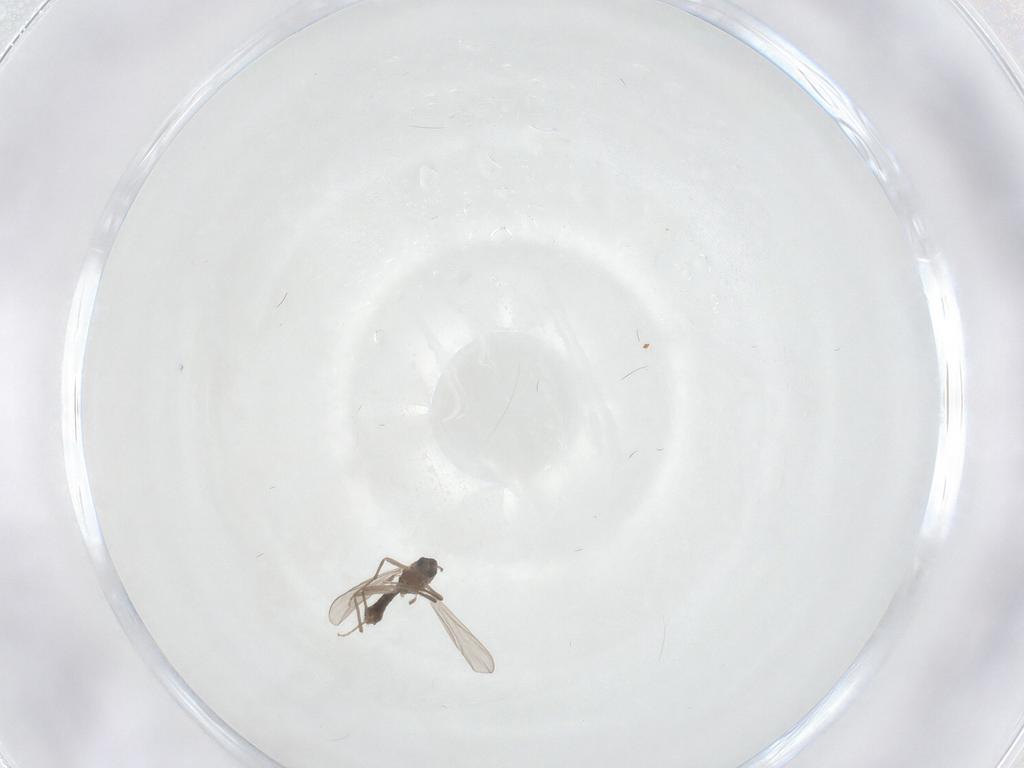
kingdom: Animalia
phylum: Arthropoda
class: Insecta
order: Diptera
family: Chironomidae
